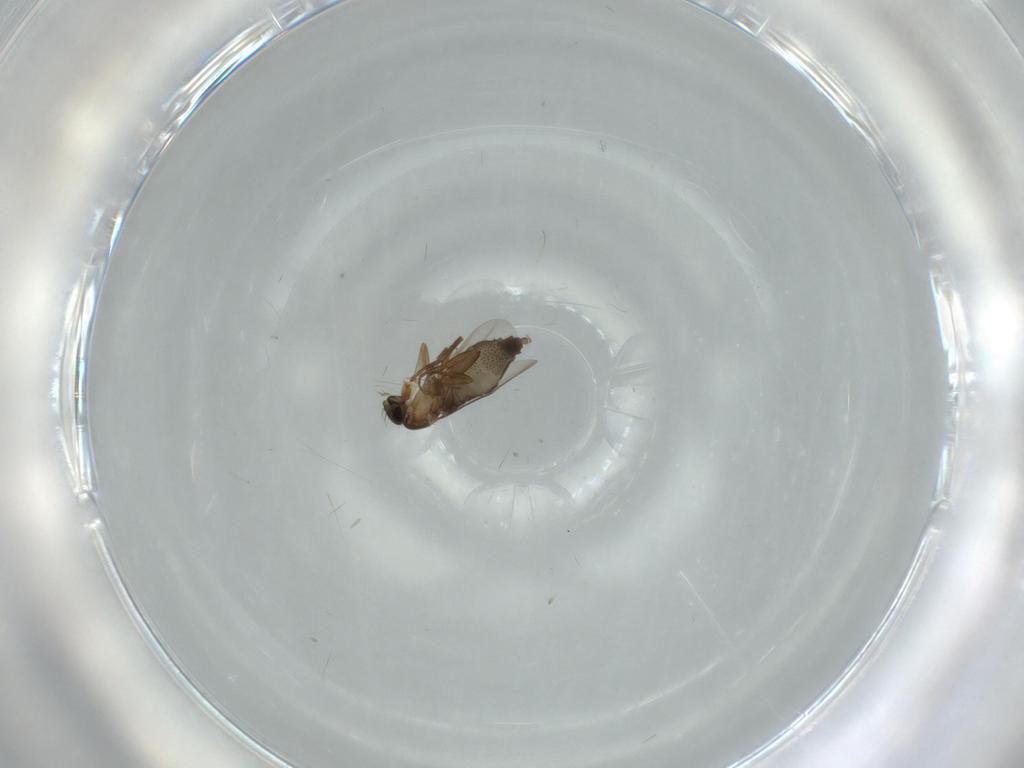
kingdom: Animalia
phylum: Arthropoda
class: Insecta
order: Diptera
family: Phoridae
